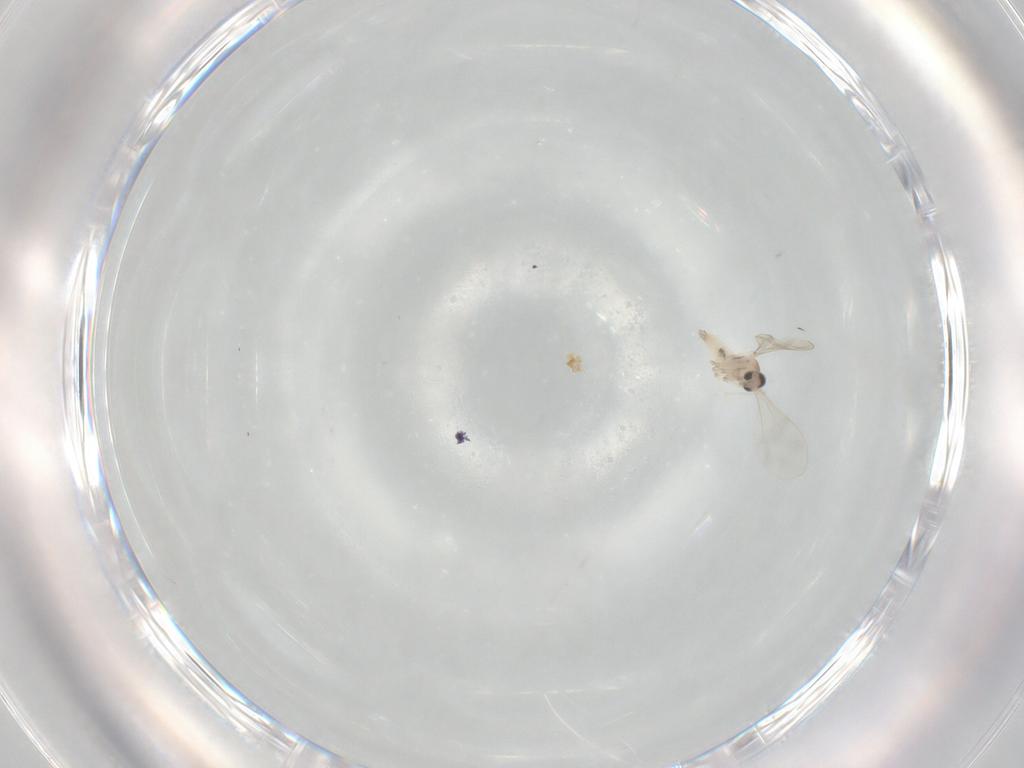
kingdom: Animalia
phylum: Arthropoda
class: Insecta
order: Diptera
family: Cecidomyiidae
